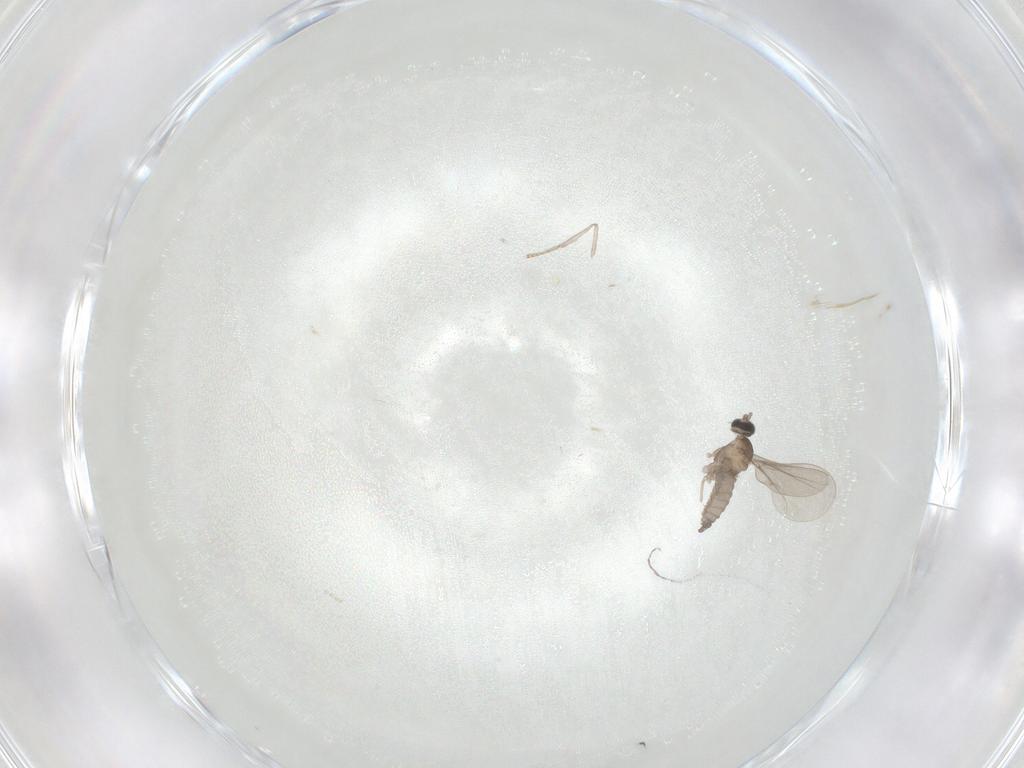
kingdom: Animalia
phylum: Arthropoda
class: Insecta
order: Diptera
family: Cecidomyiidae
